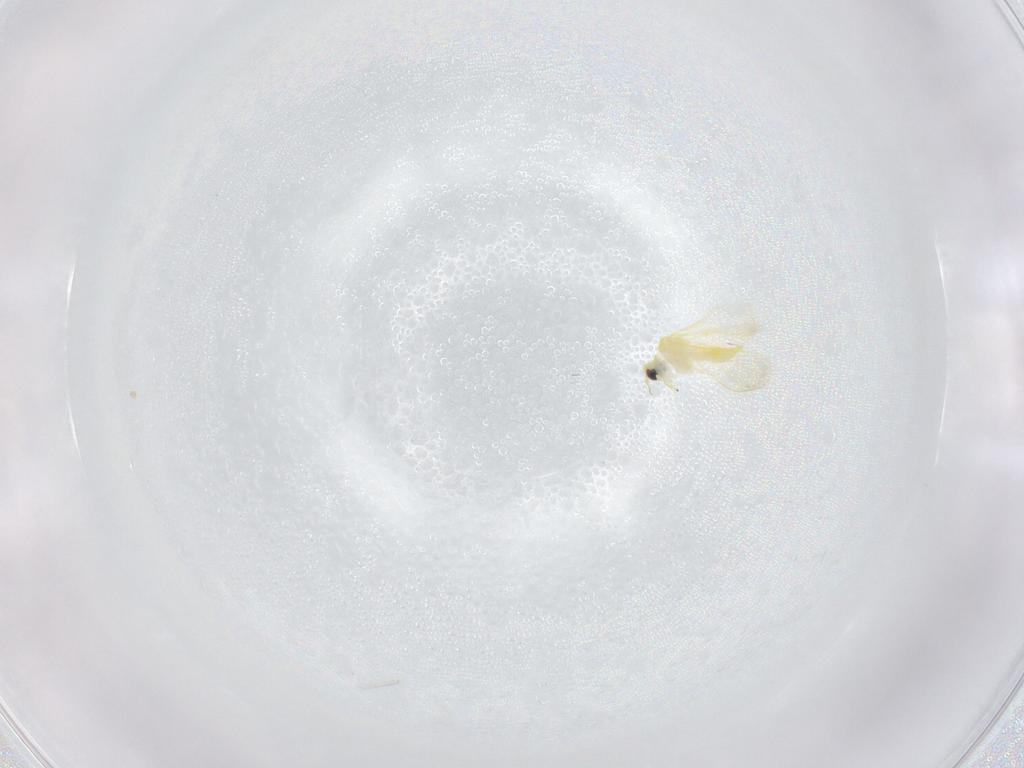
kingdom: Animalia
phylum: Arthropoda
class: Insecta
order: Hemiptera
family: Aleyrodidae
